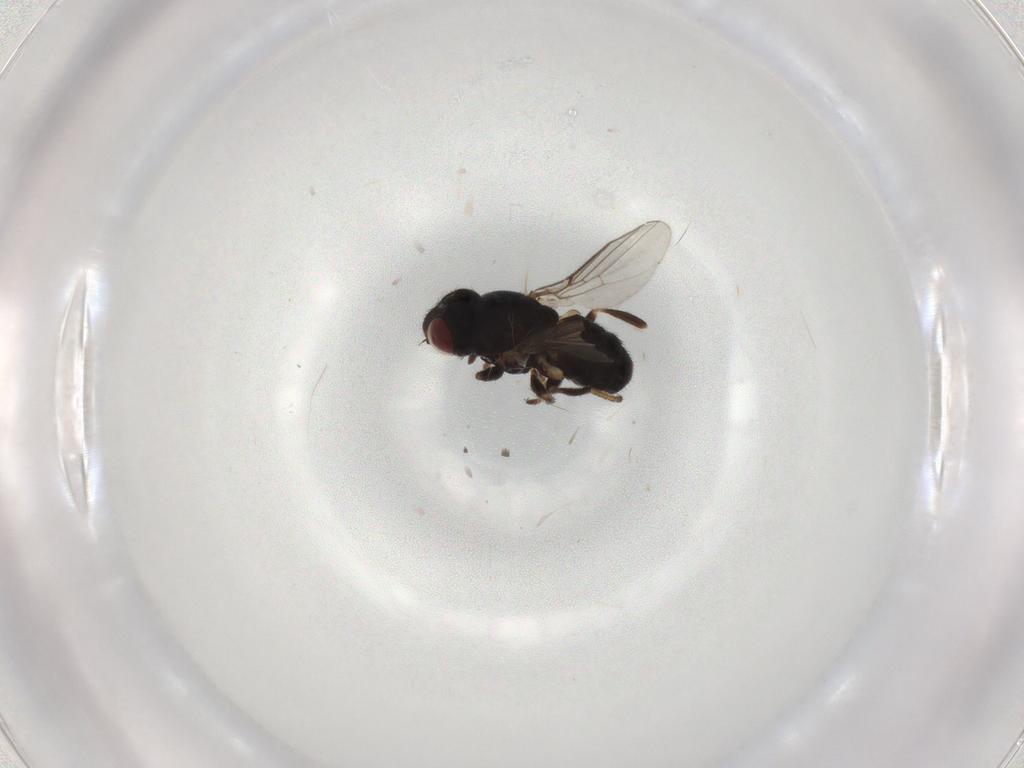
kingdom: Animalia
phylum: Arthropoda
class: Insecta
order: Diptera
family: Chloropidae
